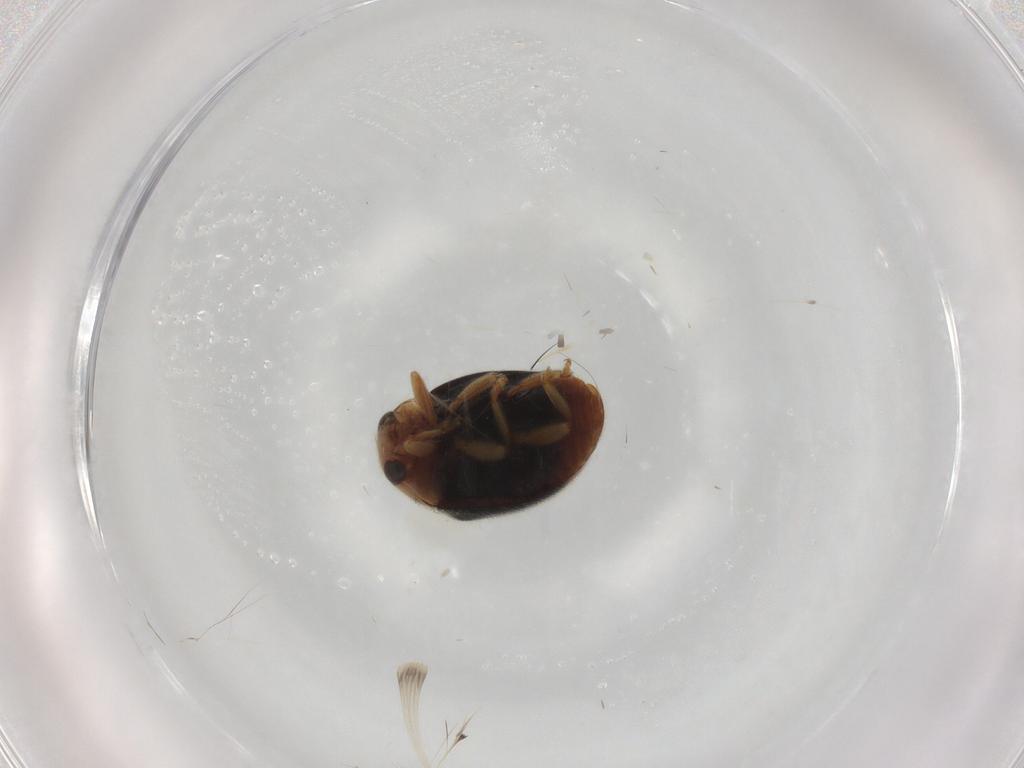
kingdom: Animalia
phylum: Arthropoda
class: Insecta
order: Coleoptera
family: Coccinellidae
